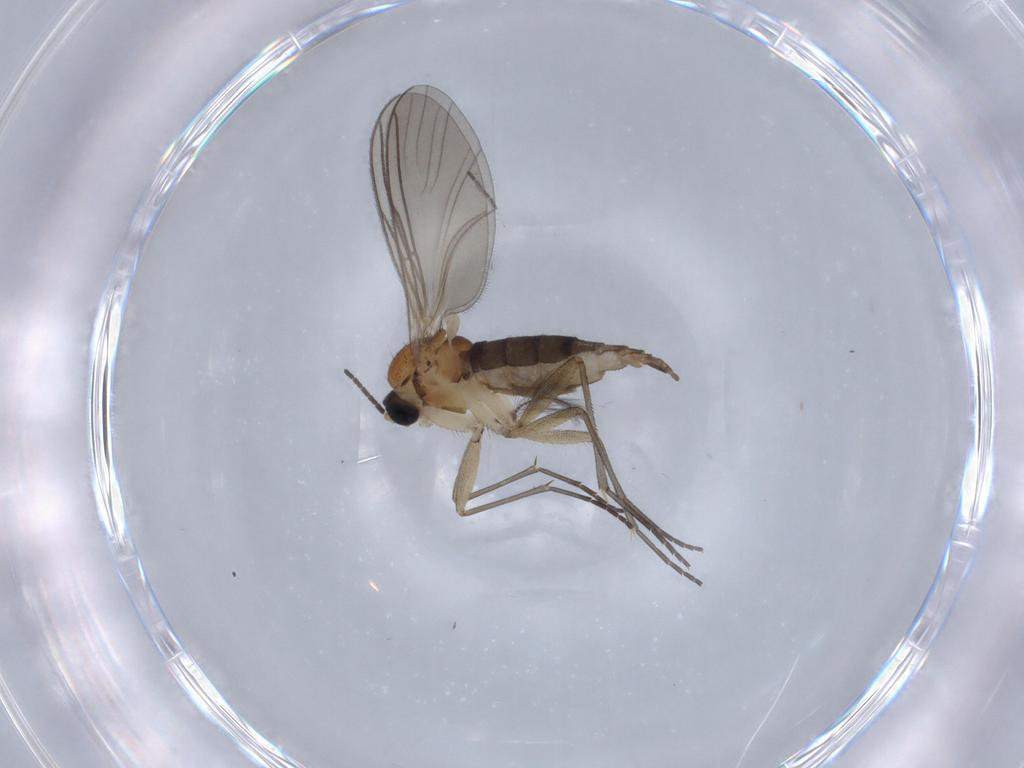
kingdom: Animalia
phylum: Arthropoda
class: Insecta
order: Diptera
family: Sciaridae
